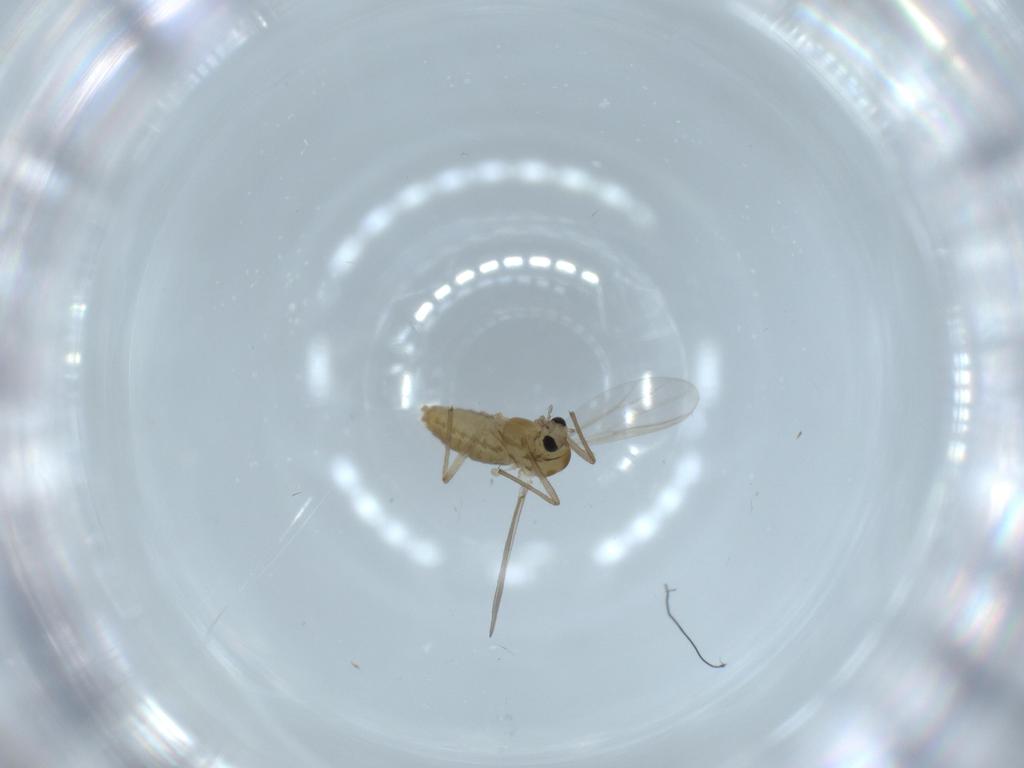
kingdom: Animalia
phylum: Arthropoda
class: Insecta
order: Diptera
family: Psychodidae
